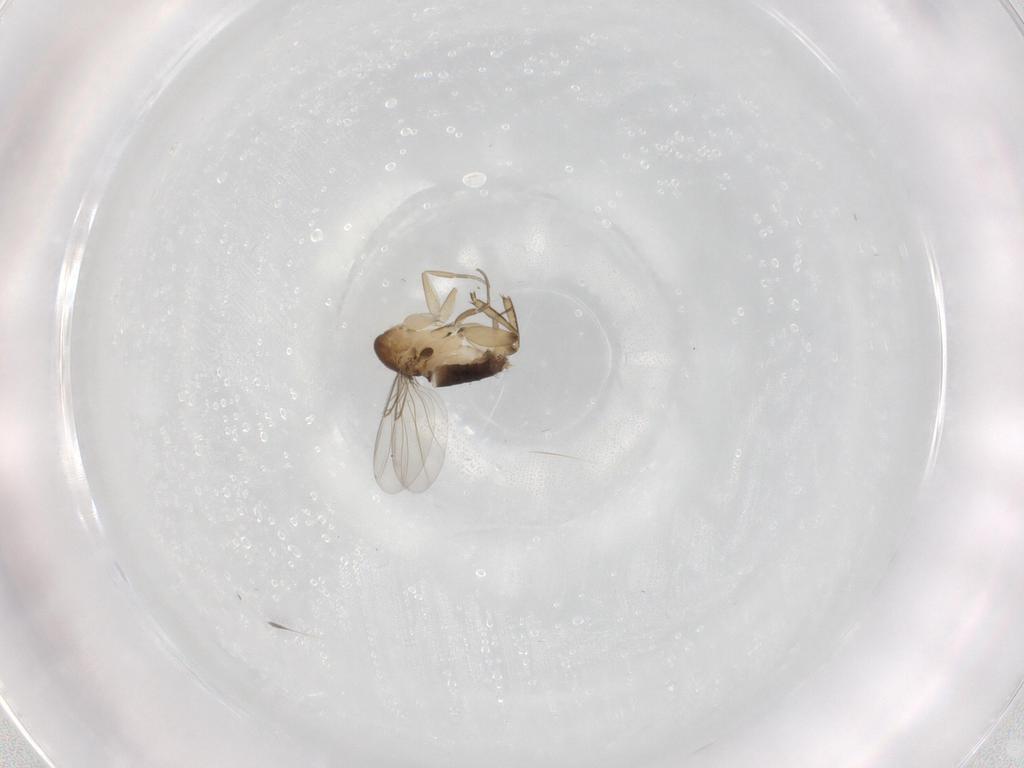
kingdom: Animalia
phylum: Arthropoda
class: Insecta
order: Diptera
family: Phoridae
